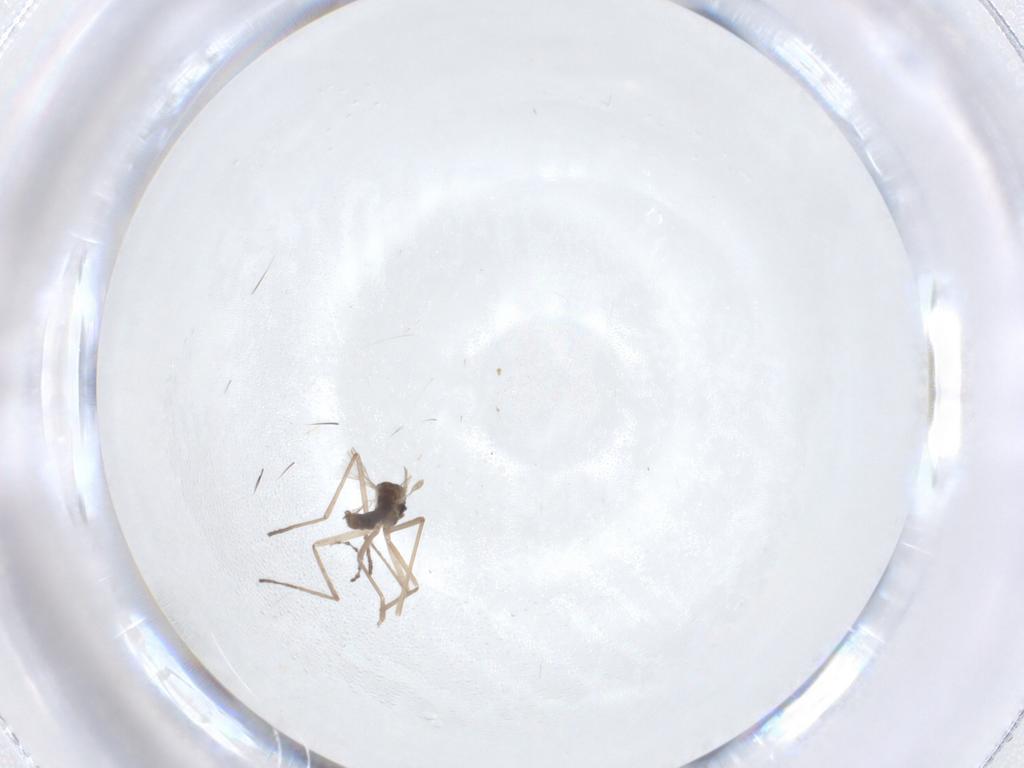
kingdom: Animalia
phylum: Arthropoda
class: Insecta
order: Diptera
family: Cecidomyiidae
